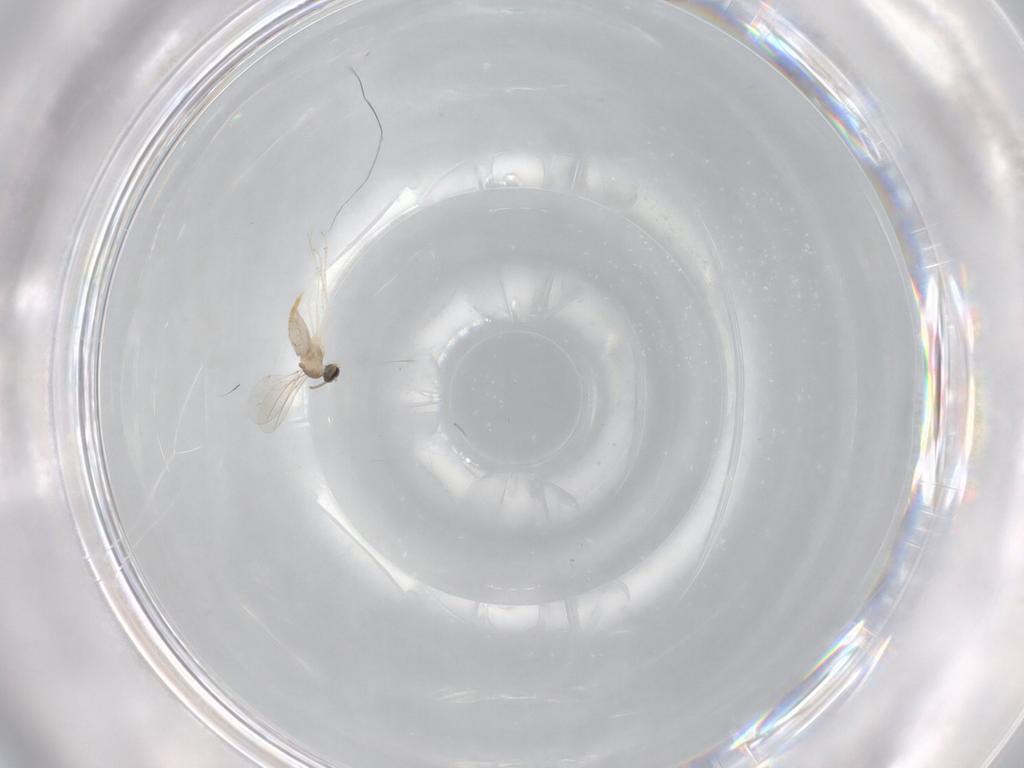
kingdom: Animalia
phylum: Arthropoda
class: Insecta
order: Diptera
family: Cecidomyiidae
